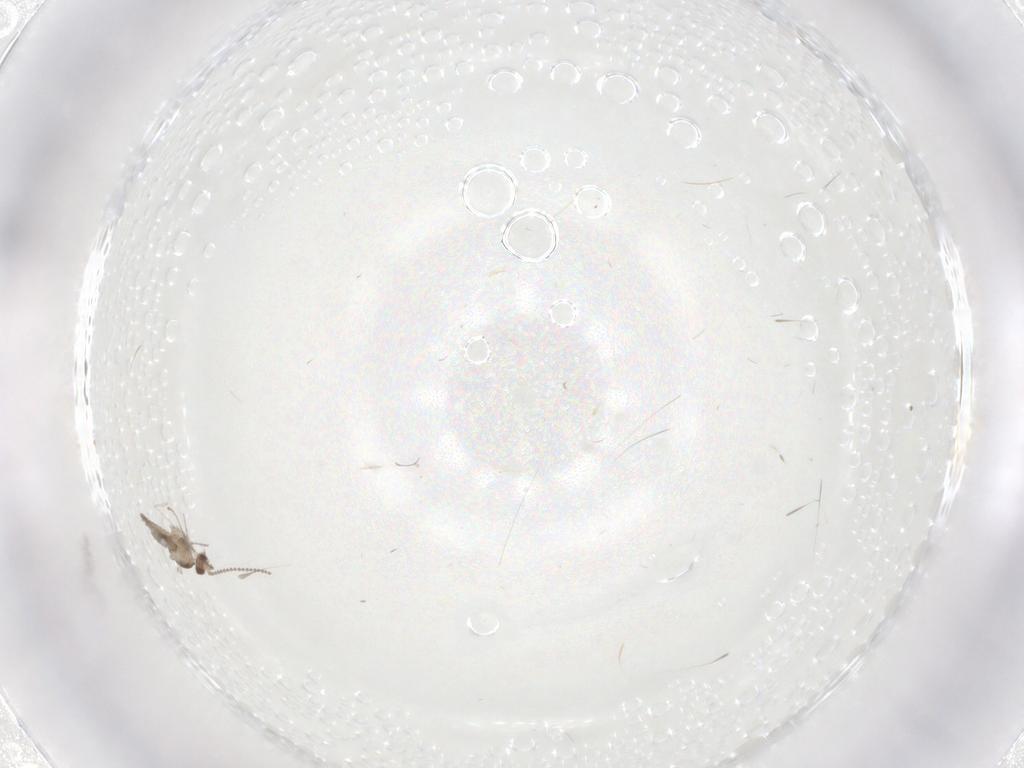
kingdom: Animalia
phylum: Arthropoda
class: Insecta
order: Diptera
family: Cecidomyiidae
